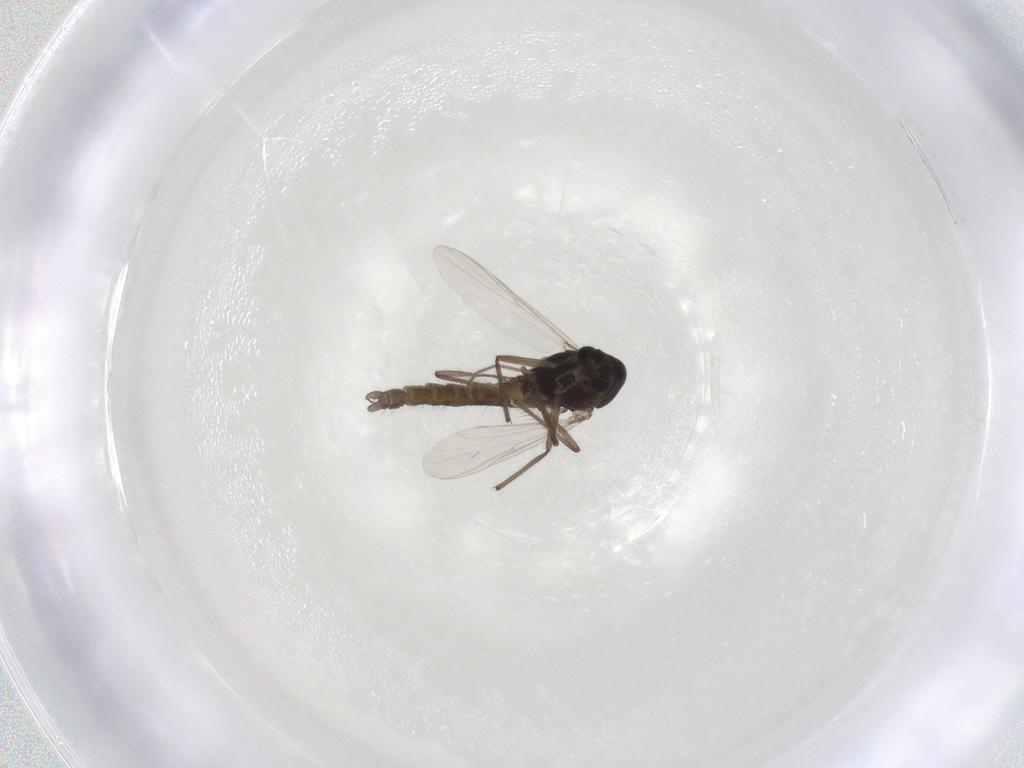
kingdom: Animalia
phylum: Arthropoda
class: Insecta
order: Diptera
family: Chironomidae
